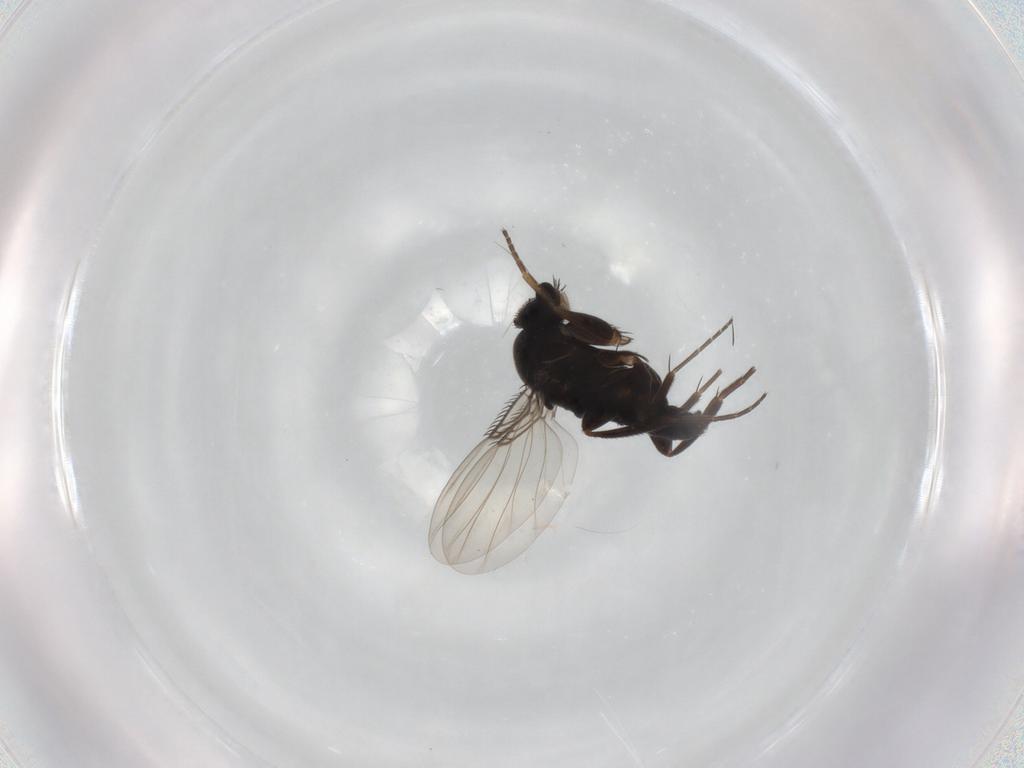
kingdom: Animalia
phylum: Arthropoda
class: Insecta
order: Diptera
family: Phoridae
